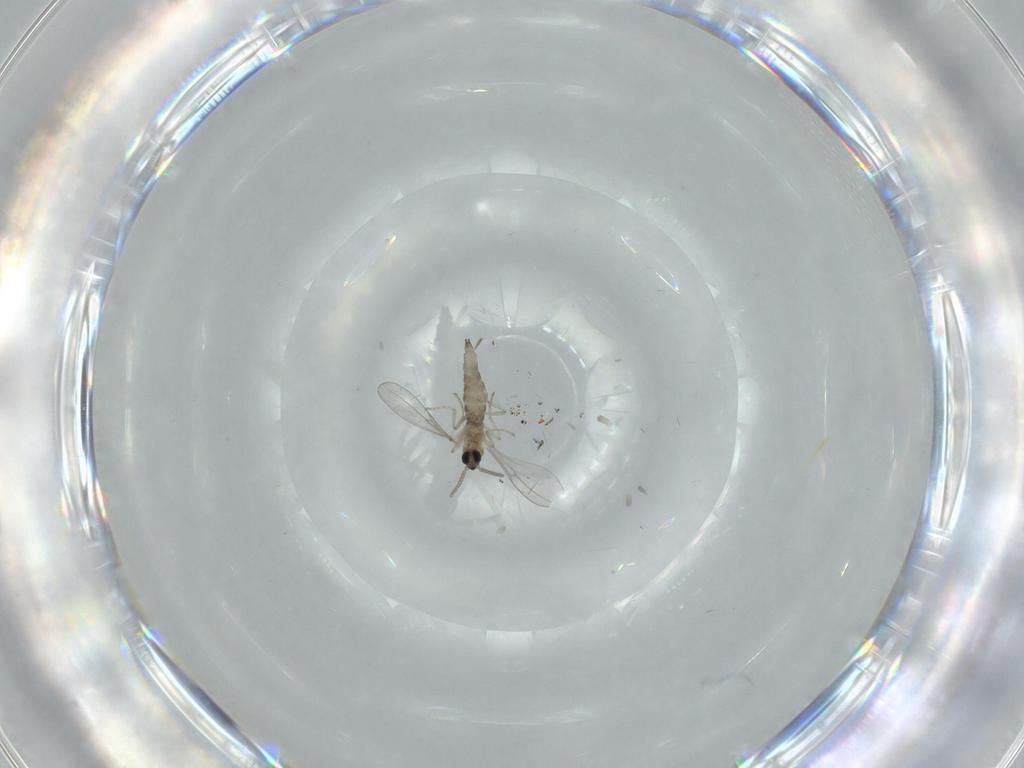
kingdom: Animalia
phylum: Arthropoda
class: Insecta
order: Diptera
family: Cecidomyiidae
